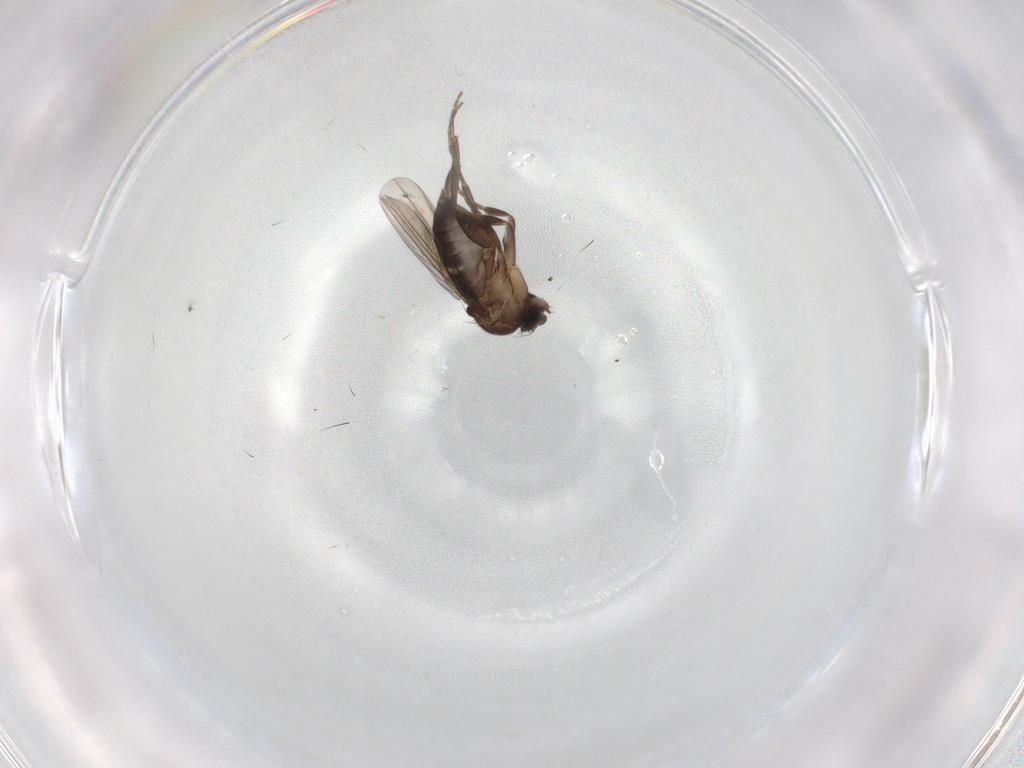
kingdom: Animalia
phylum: Arthropoda
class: Insecta
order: Diptera
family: Phoridae
